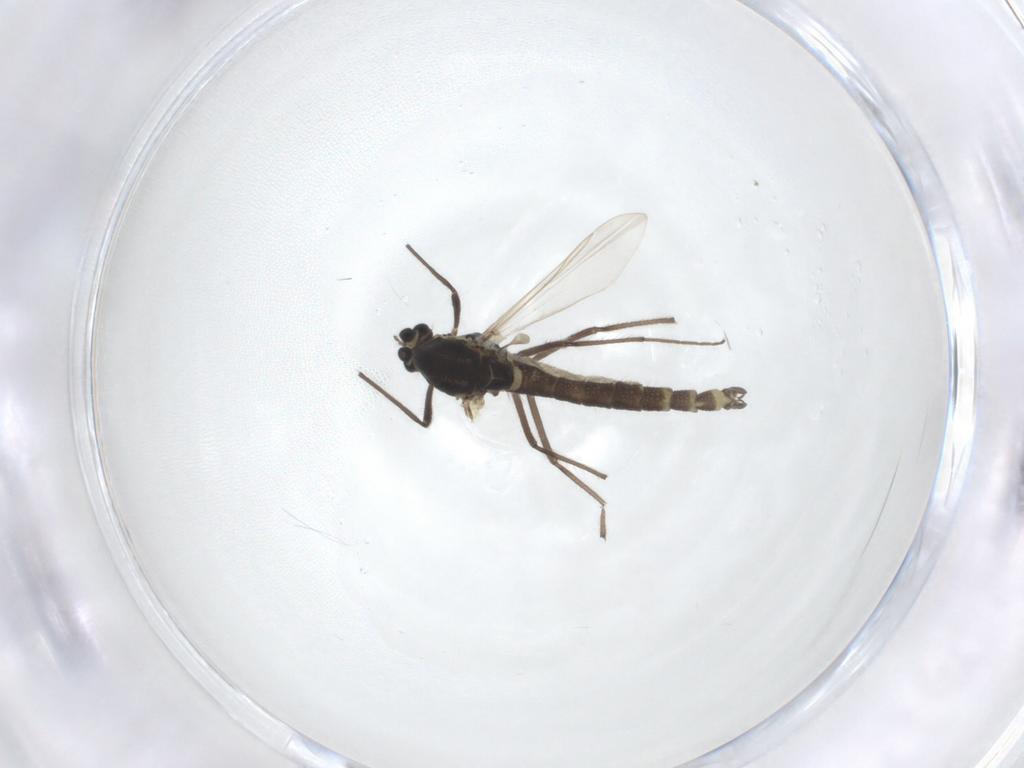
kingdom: Animalia
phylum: Arthropoda
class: Insecta
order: Diptera
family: Chironomidae
